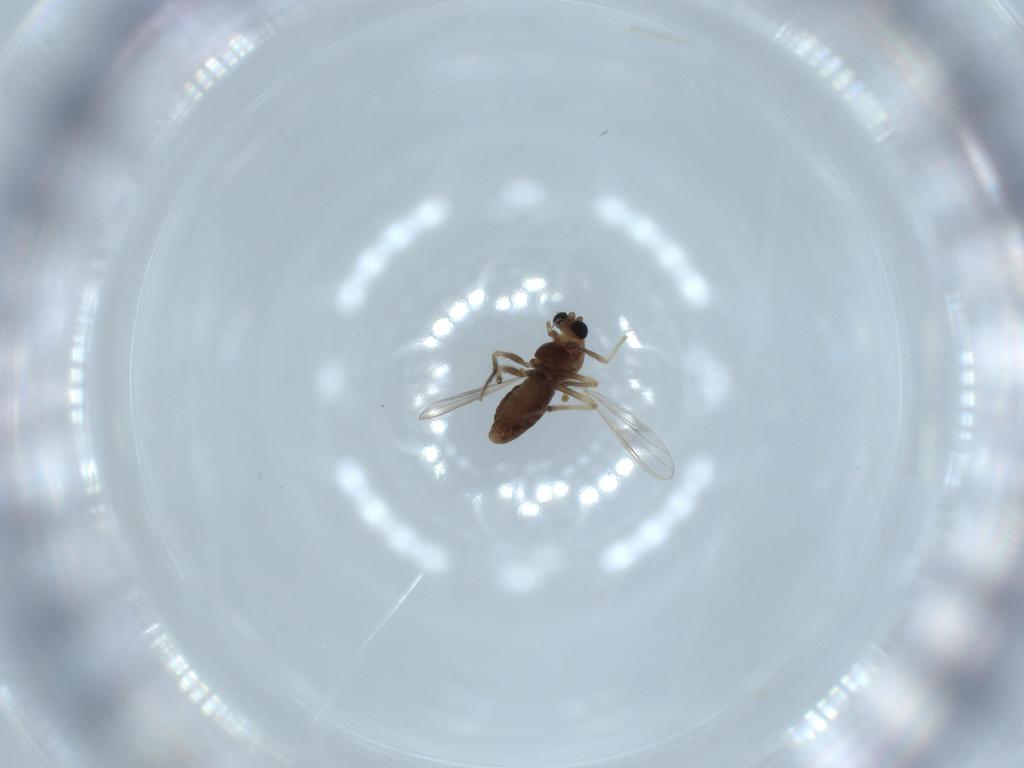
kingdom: Animalia
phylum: Arthropoda
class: Insecta
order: Diptera
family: Chironomidae
